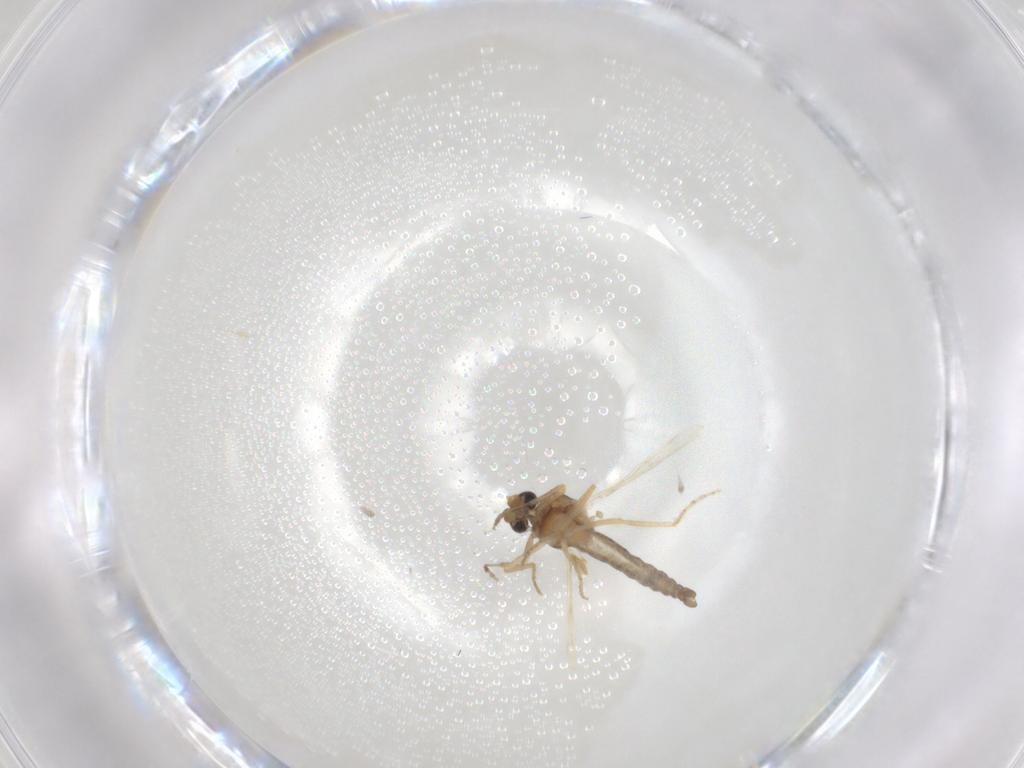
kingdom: Animalia
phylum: Arthropoda
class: Insecta
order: Diptera
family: Ceratopogonidae
